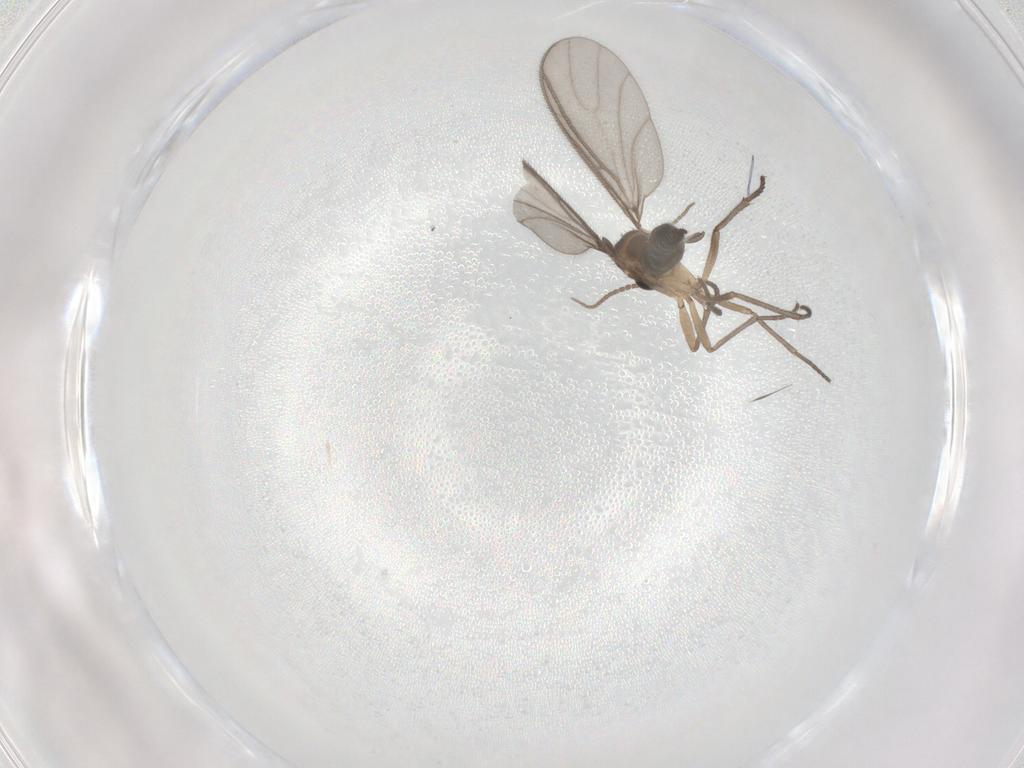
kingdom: Animalia
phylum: Arthropoda
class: Insecta
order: Diptera
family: Sciaridae
